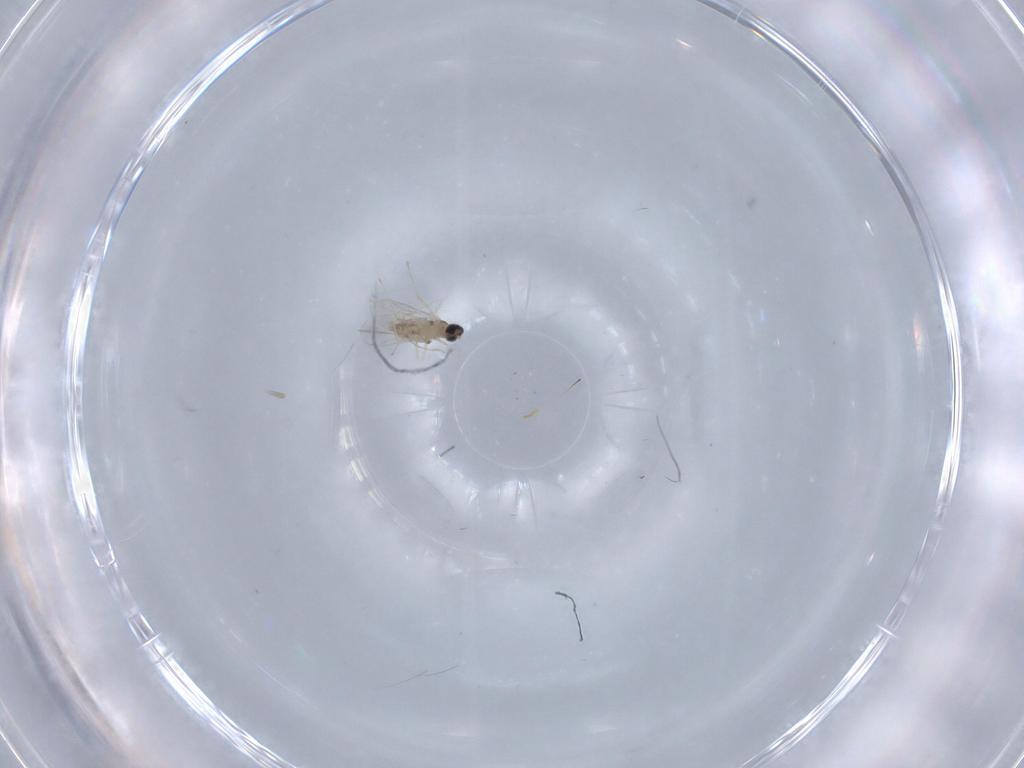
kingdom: Animalia
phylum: Arthropoda
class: Insecta
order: Diptera
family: Cecidomyiidae
